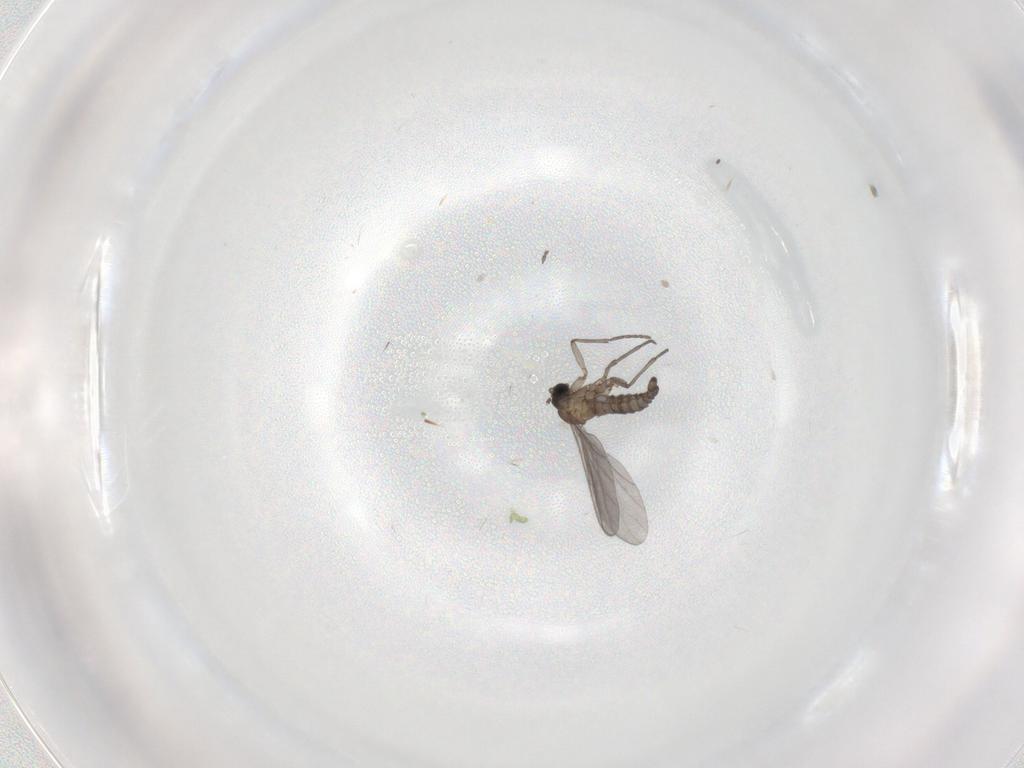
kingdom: Animalia
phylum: Arthropoda
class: Insecta
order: Diptera
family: Sciaridae
